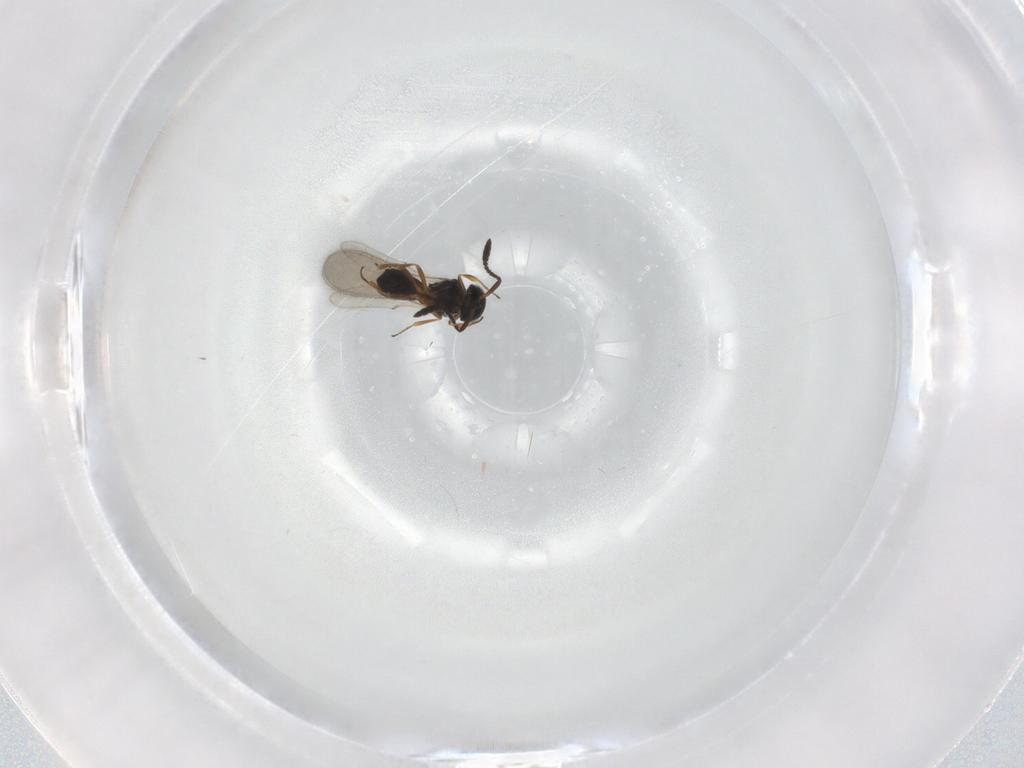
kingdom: Animalia
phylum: Arthropoda
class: Insecta
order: Hymenoptera
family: Scelionidae
